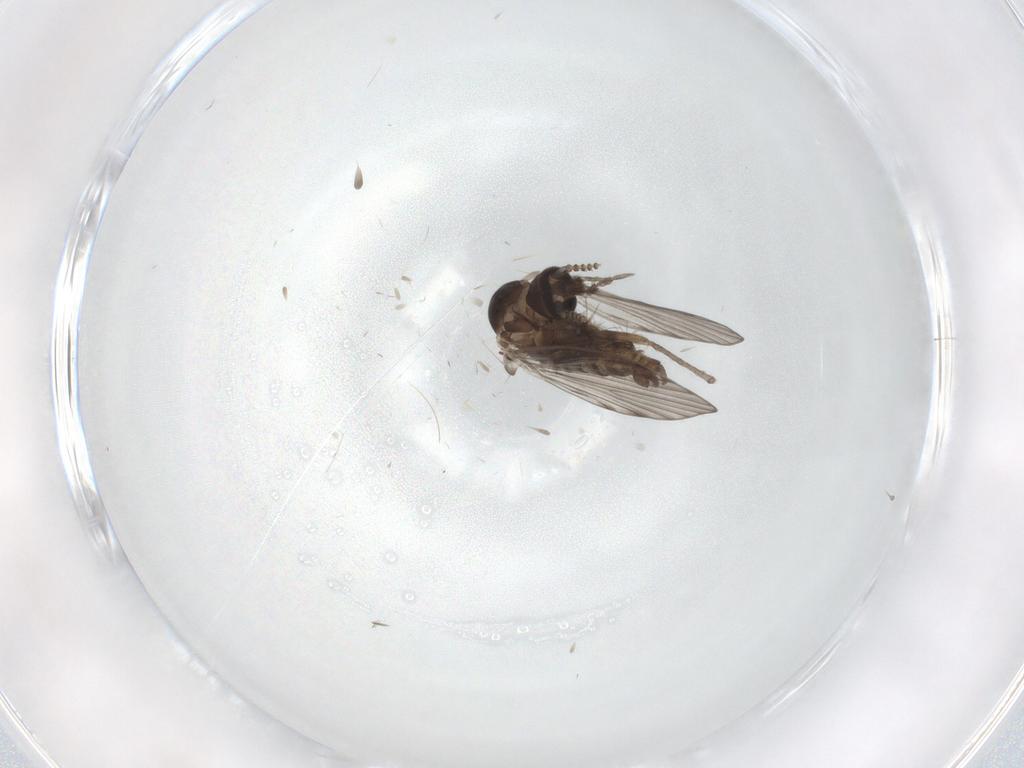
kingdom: Animalia
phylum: Arthropoda
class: Insecta
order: Diptera
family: Psychodidae
